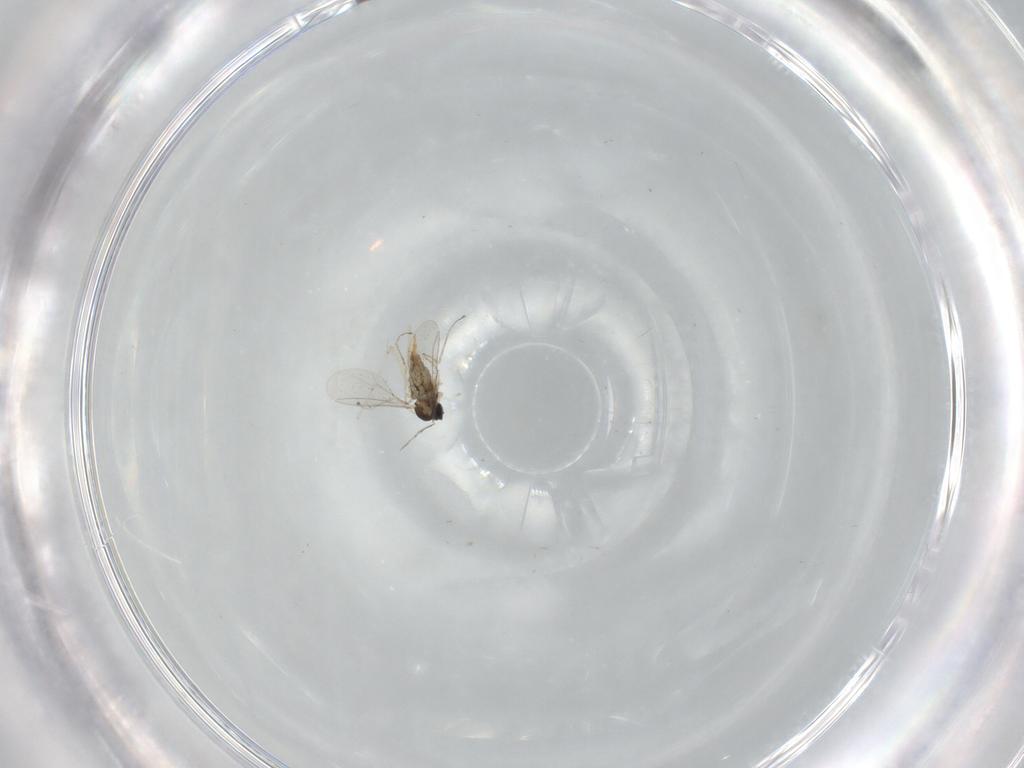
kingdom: Animalia
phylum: Arthropoda
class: Insecta
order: Diptera
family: Cecidomyiidae
